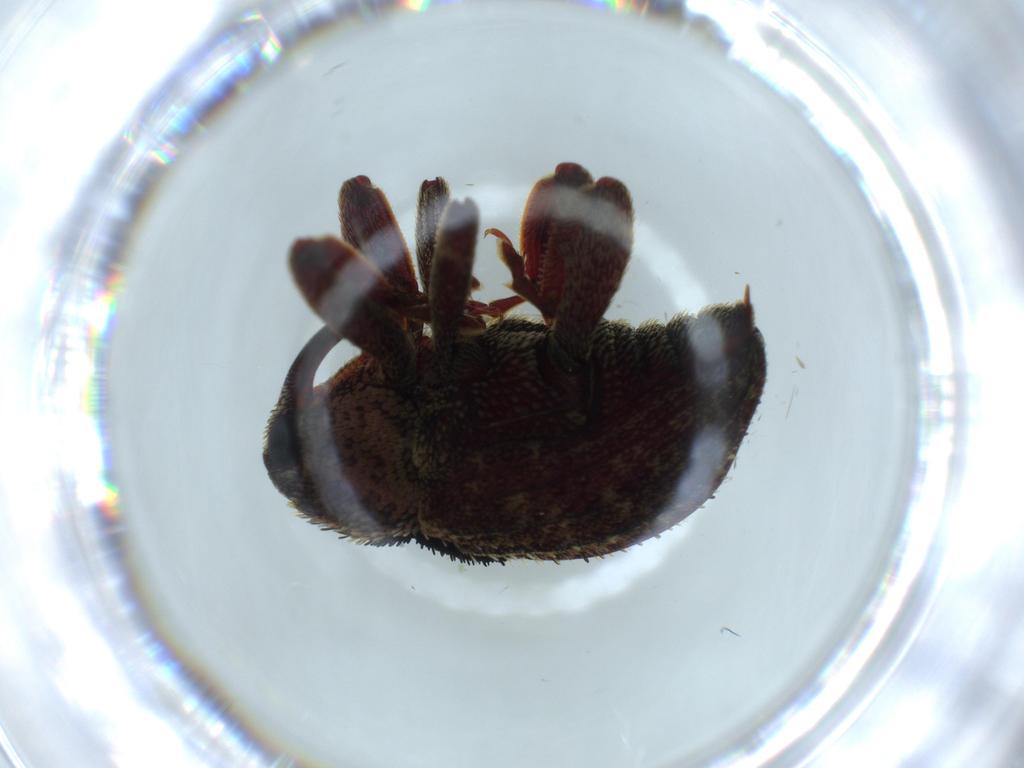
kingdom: Animalia
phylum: Arthropoda
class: Insecta
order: Coleoptera
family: Curculionidae
